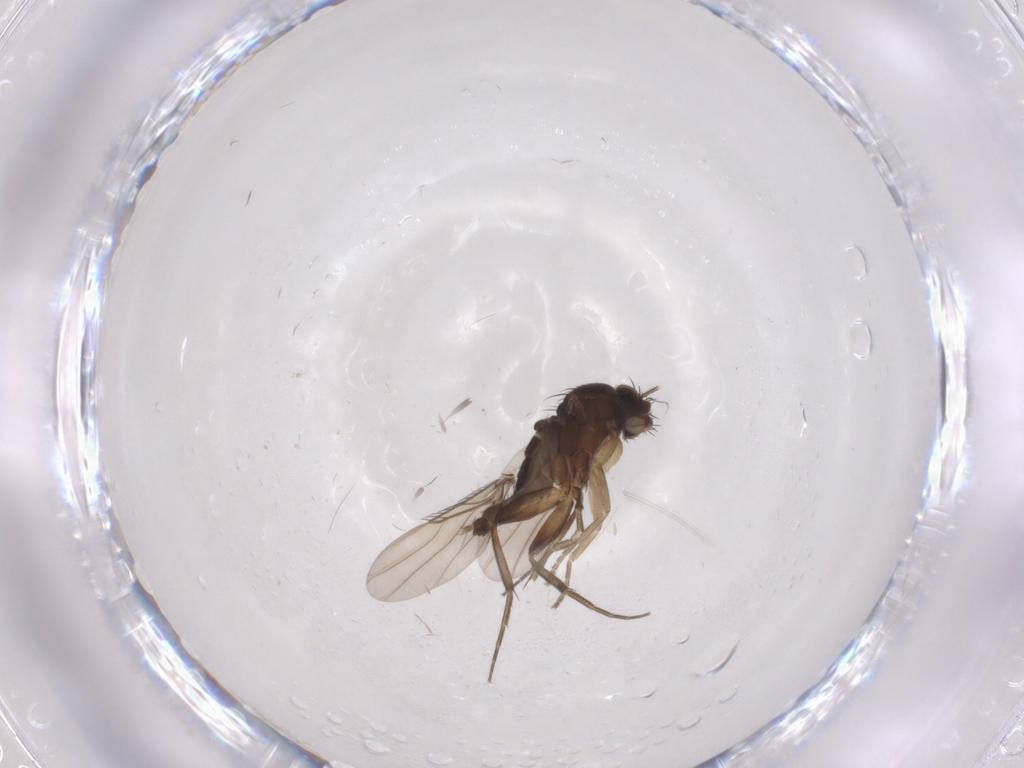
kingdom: Animalia
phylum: Arthropoda
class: Insecta
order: Diptera
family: Phoridae
